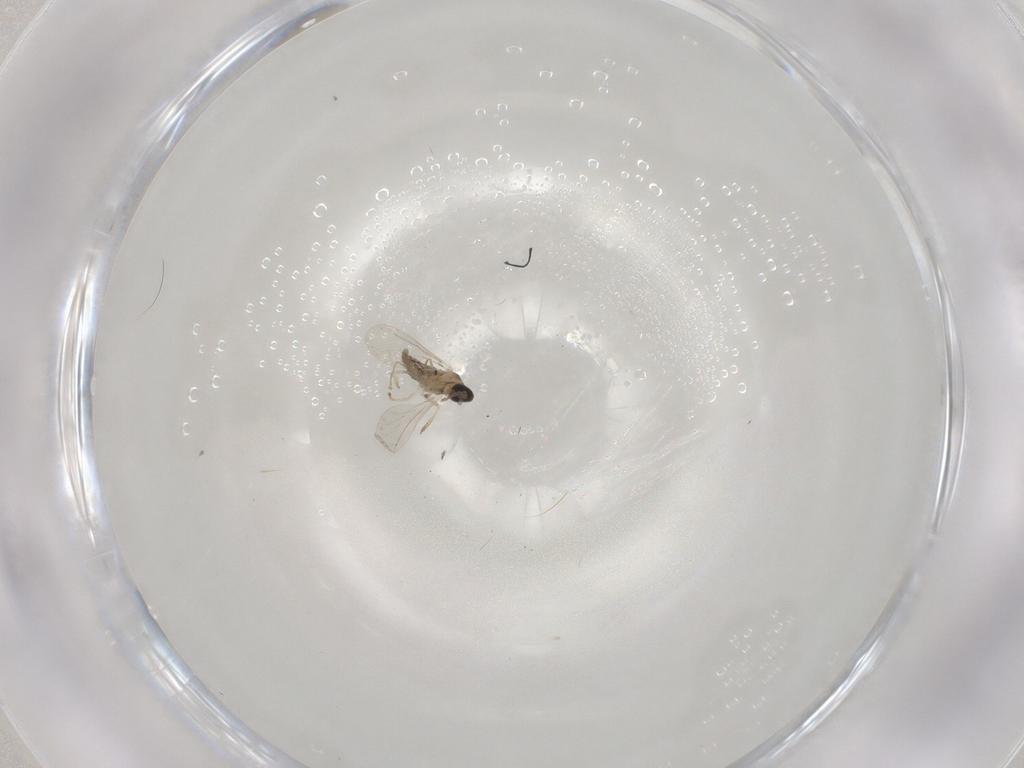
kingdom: Animalia
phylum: Arthropoda
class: Insecta
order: Diptera
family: Cecidomyiidae
